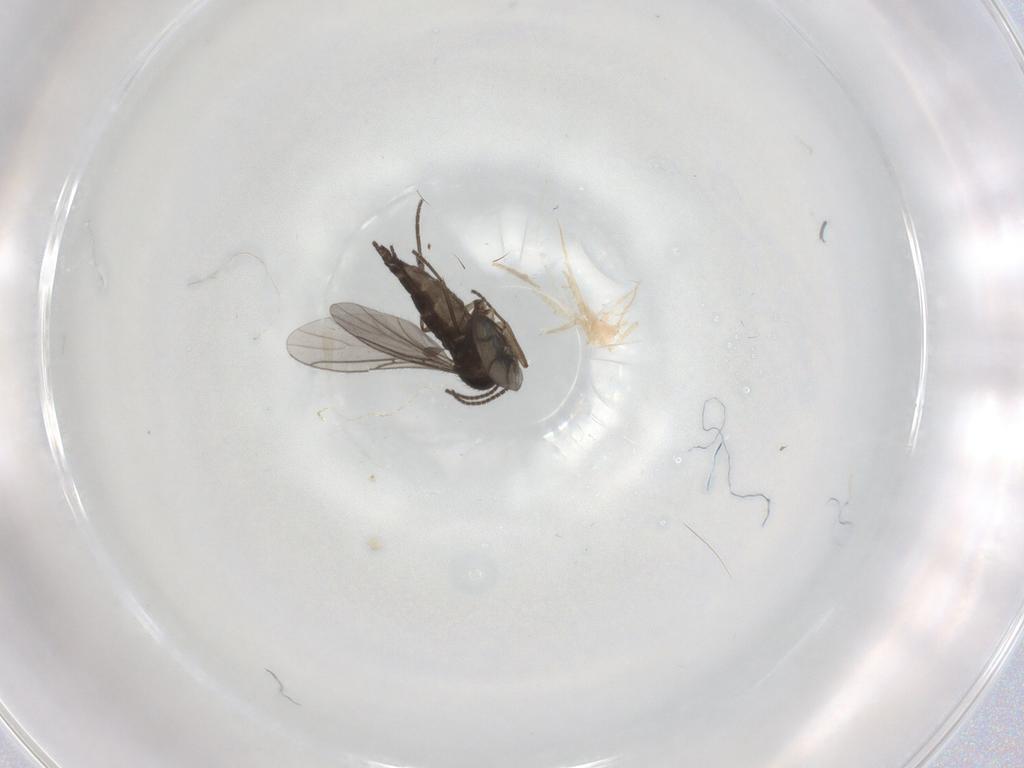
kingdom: Animalia
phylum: Arthropoda
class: Insecta
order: Diptera
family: Sciaridae
